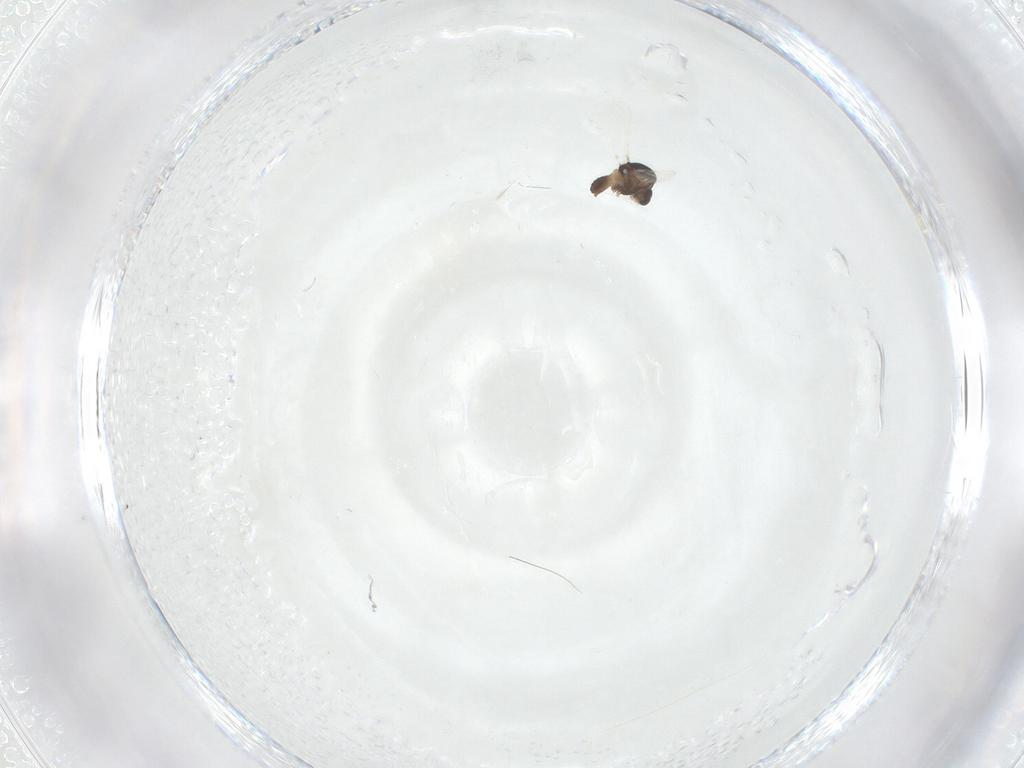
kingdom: Animalia
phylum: Arthropoda
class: Insecta
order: Diptera
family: Chironomidae
